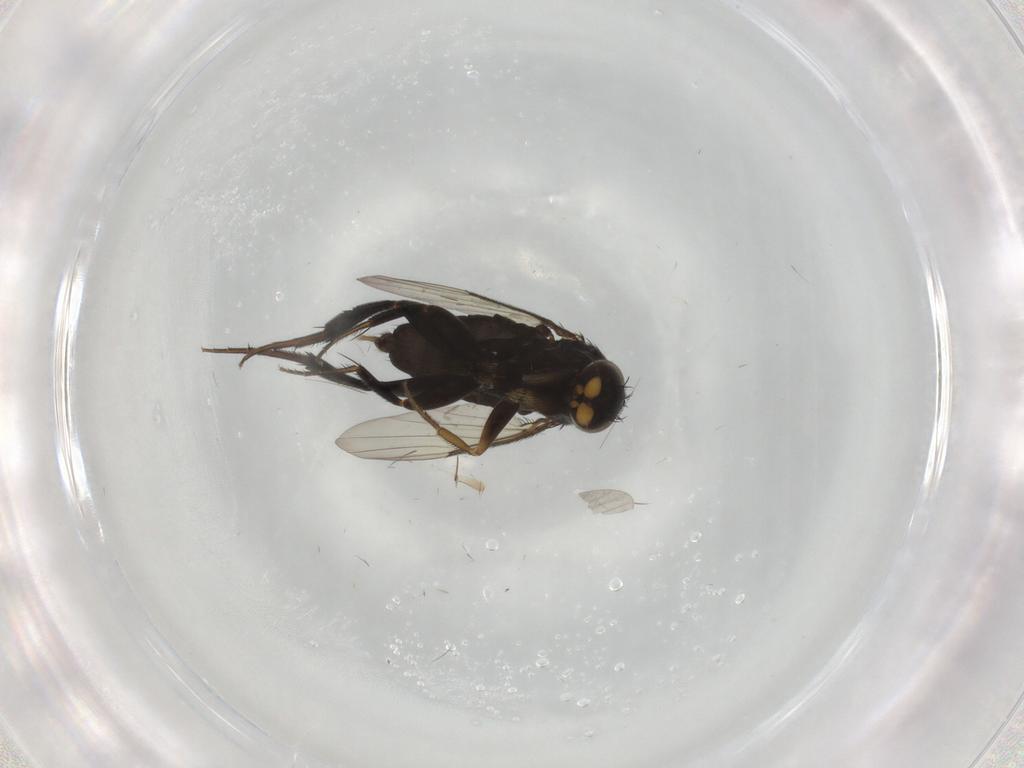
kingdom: Animalia
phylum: Arthropoda
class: Insecta
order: Diptera
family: Phoridae
